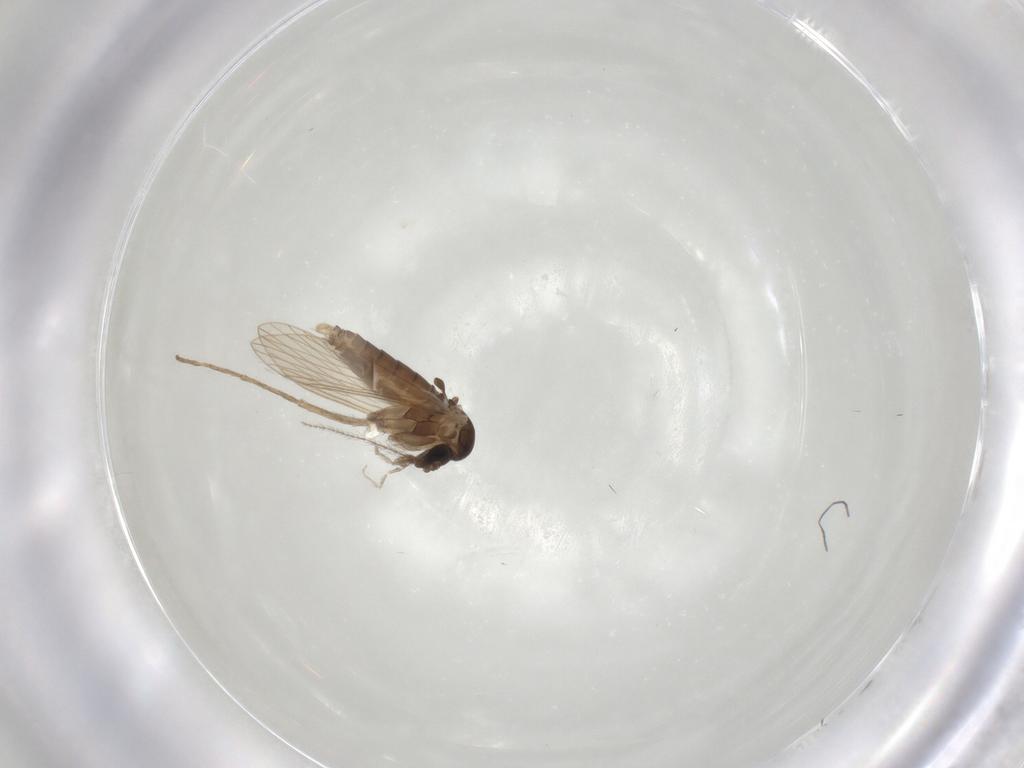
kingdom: Animalia
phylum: Arthropoda
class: Insecta
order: Diptera
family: Psychodidae
